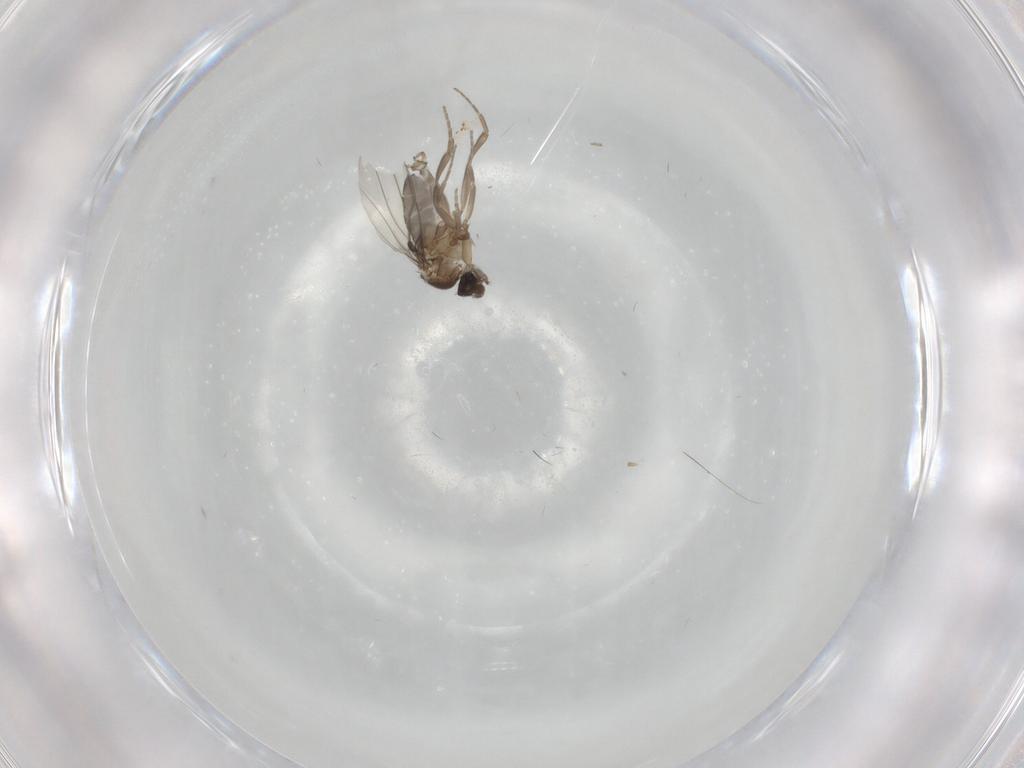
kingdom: Animalia
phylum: Arthropoda
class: Insecta
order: Diptera
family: Phoridae
